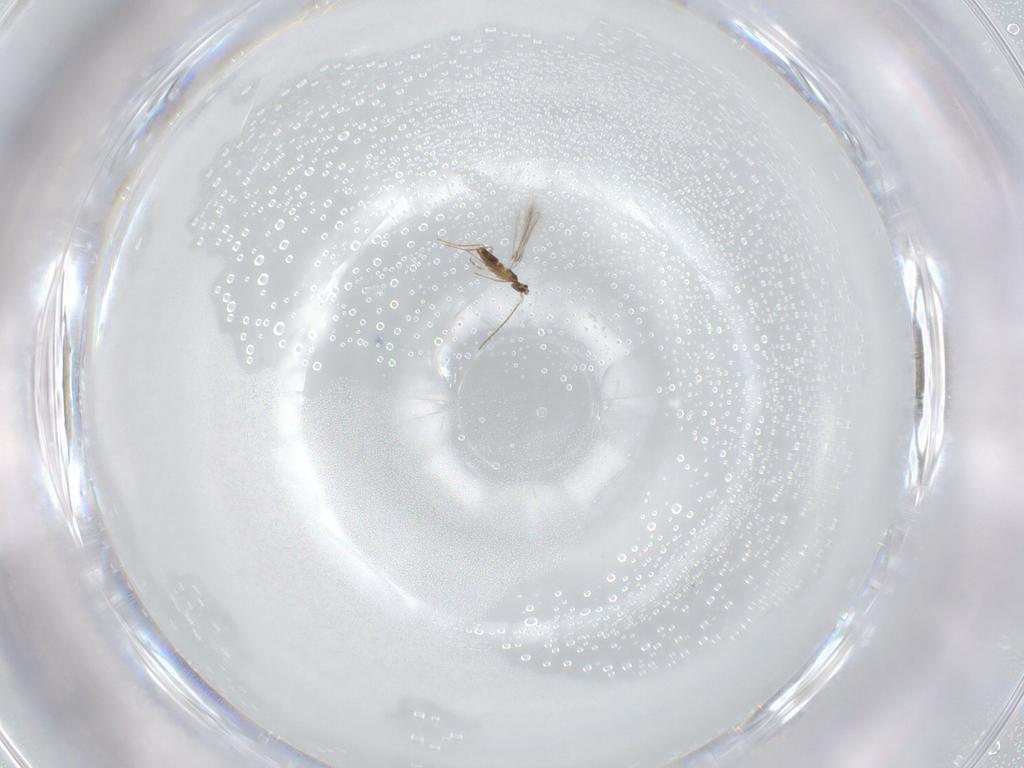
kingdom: Animalia
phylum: Arthropoda
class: Insecta
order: Hymenoptera
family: Mymaridae
